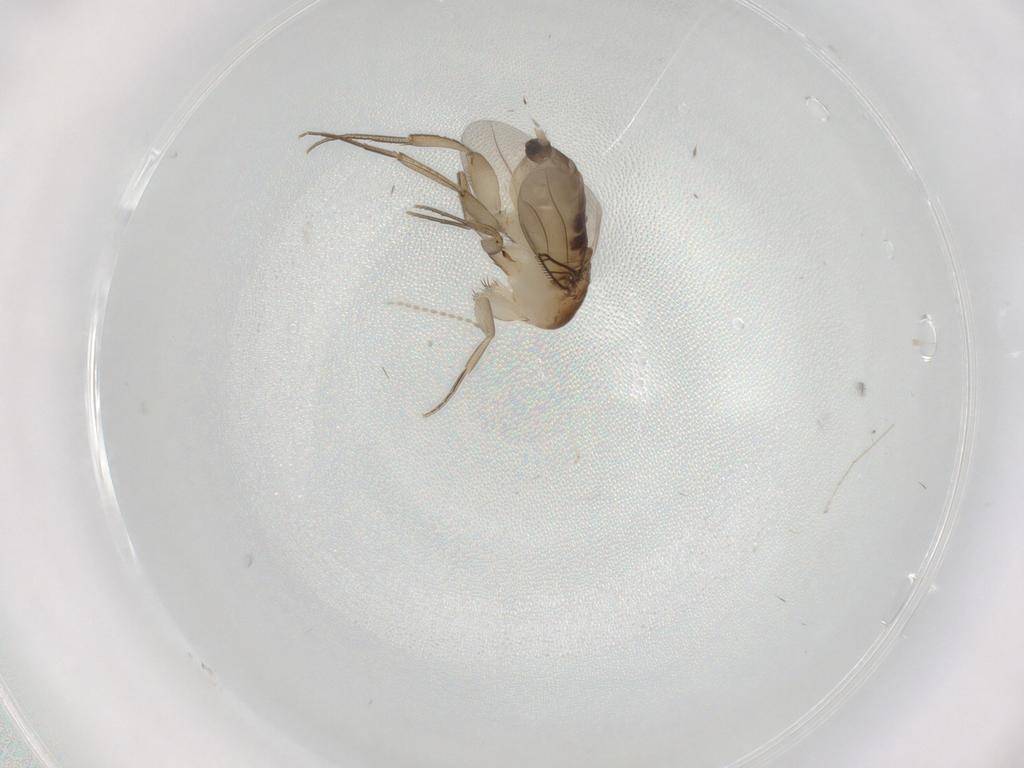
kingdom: Animalia
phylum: Arthropoda
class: Insecta
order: Diptera
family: Phoridae
